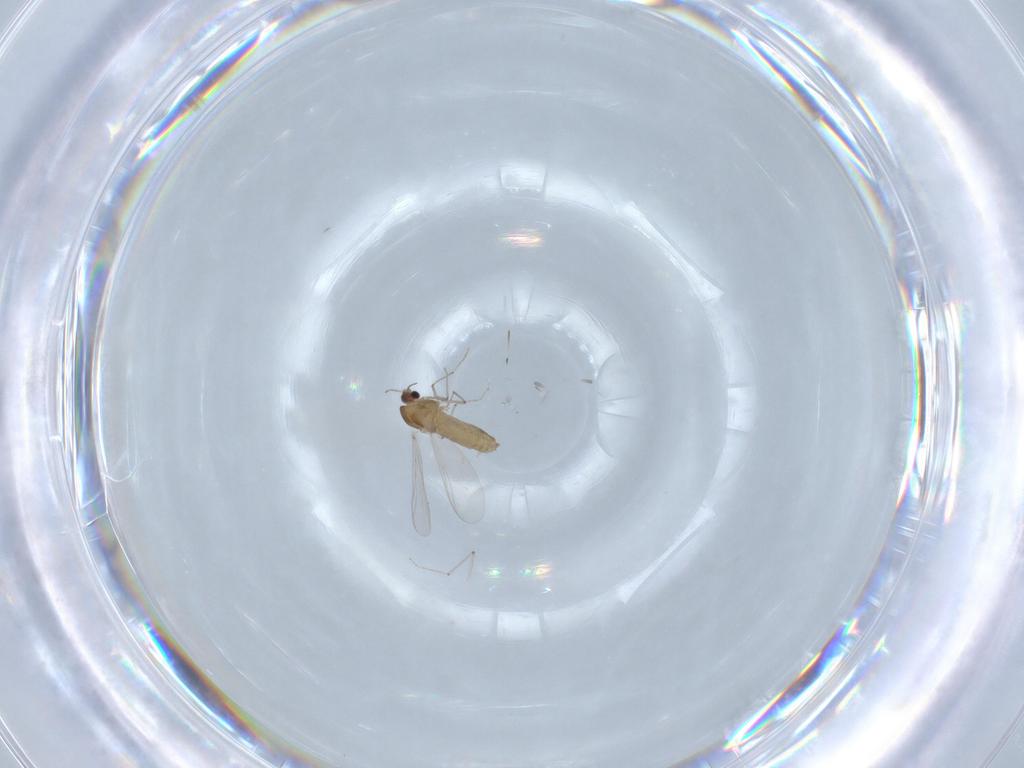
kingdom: Animalia
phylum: Arthropoda
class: Insecta
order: Diptera
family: Chironomidae
